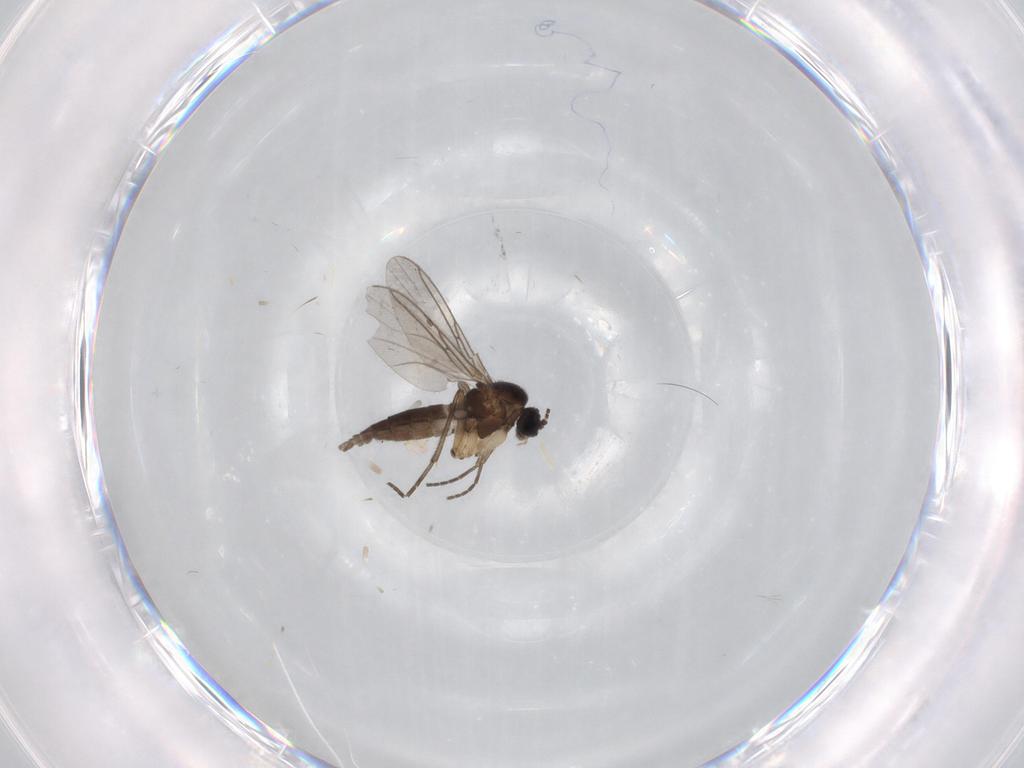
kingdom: Animalia
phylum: Arthropoda
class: Insecta
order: Diptera
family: Sciaridae
